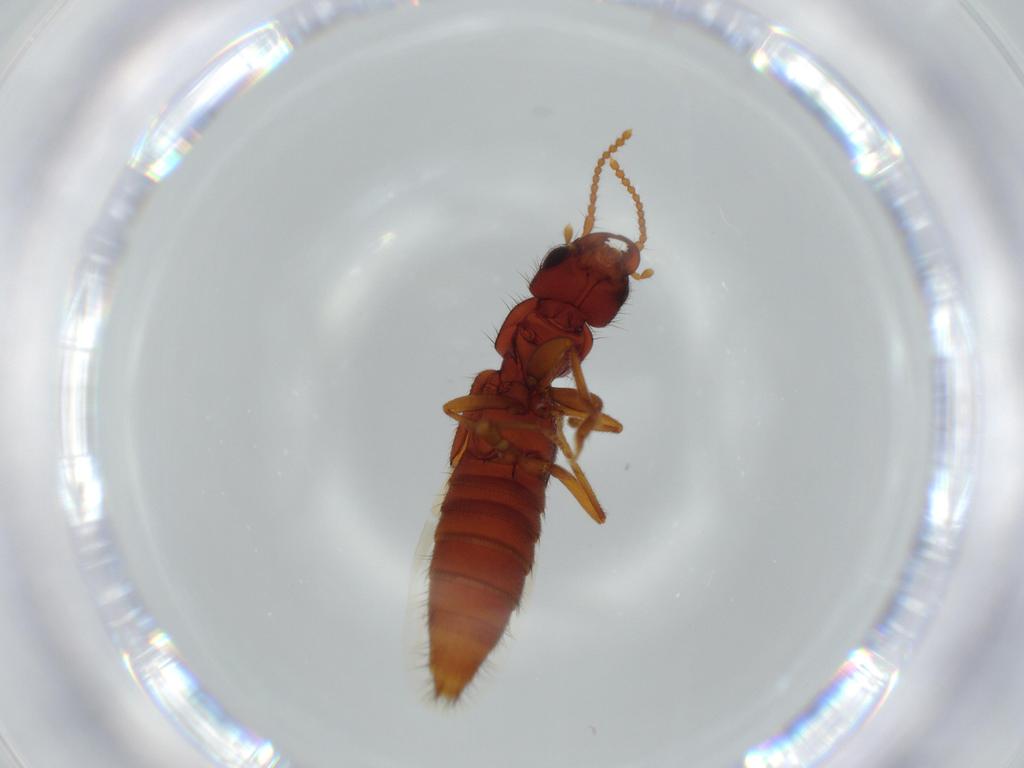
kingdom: Animalia
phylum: Arthropoda
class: Insecta
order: Coleoptera
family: Staphylinidae
